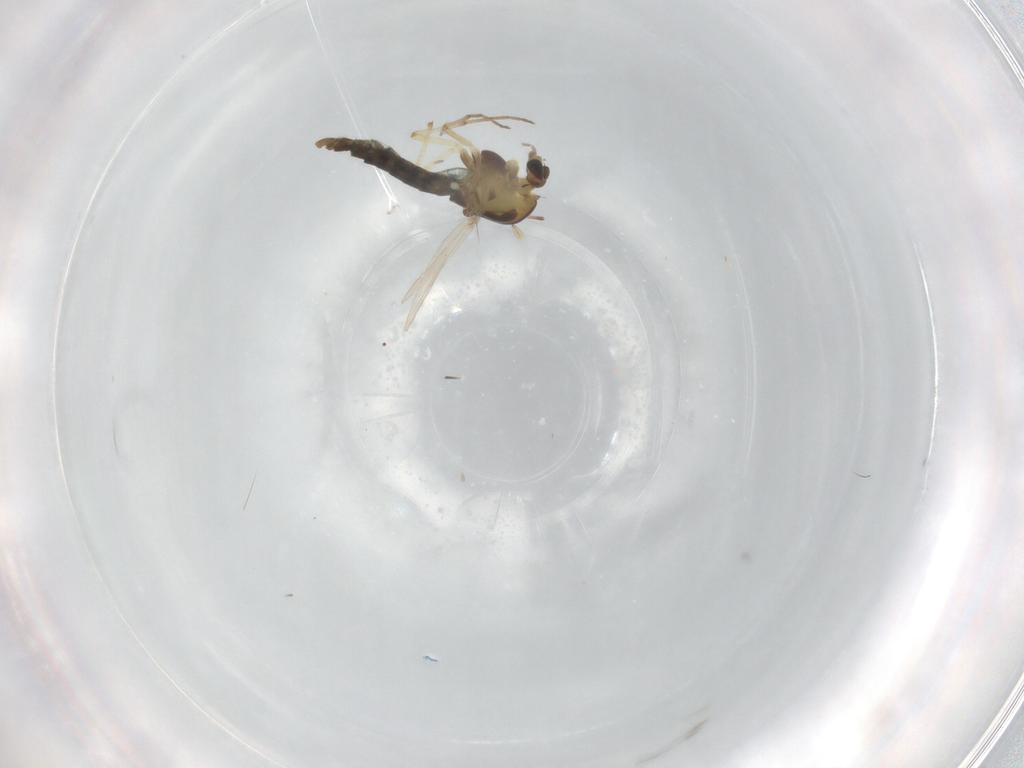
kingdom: Animalia
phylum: Arthropoda
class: Insecta
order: Diptera
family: Chironomidae
